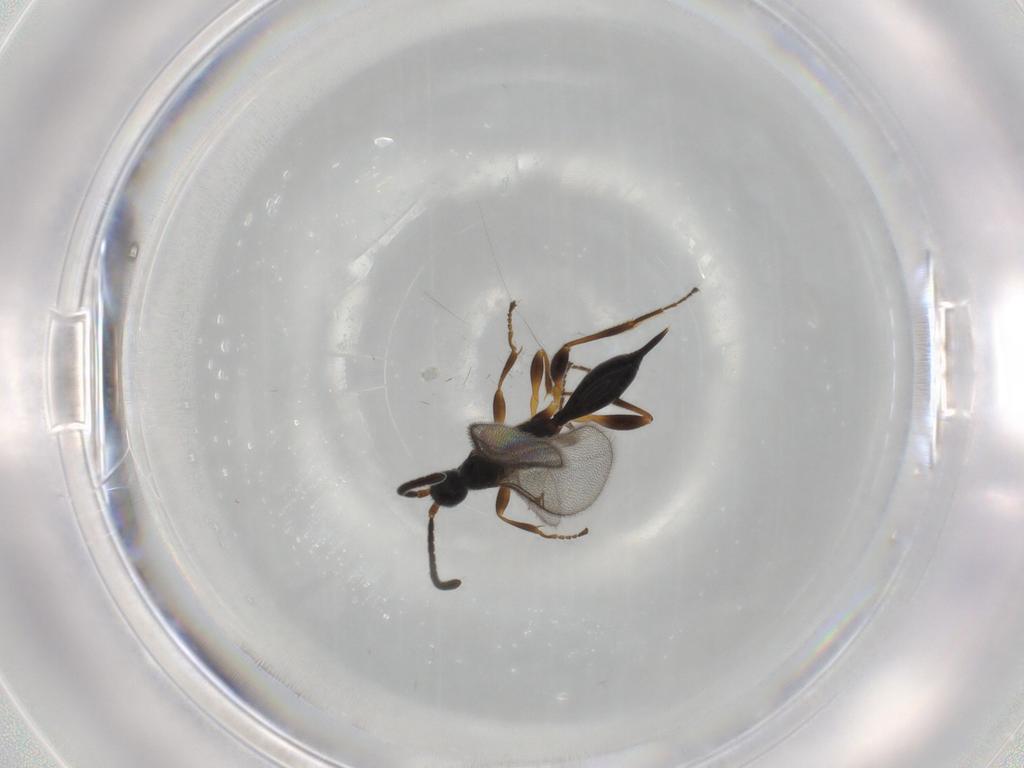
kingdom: Animalia
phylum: Arthropoda
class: Insecta
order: Hymenoptera
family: Proctotrupidae
